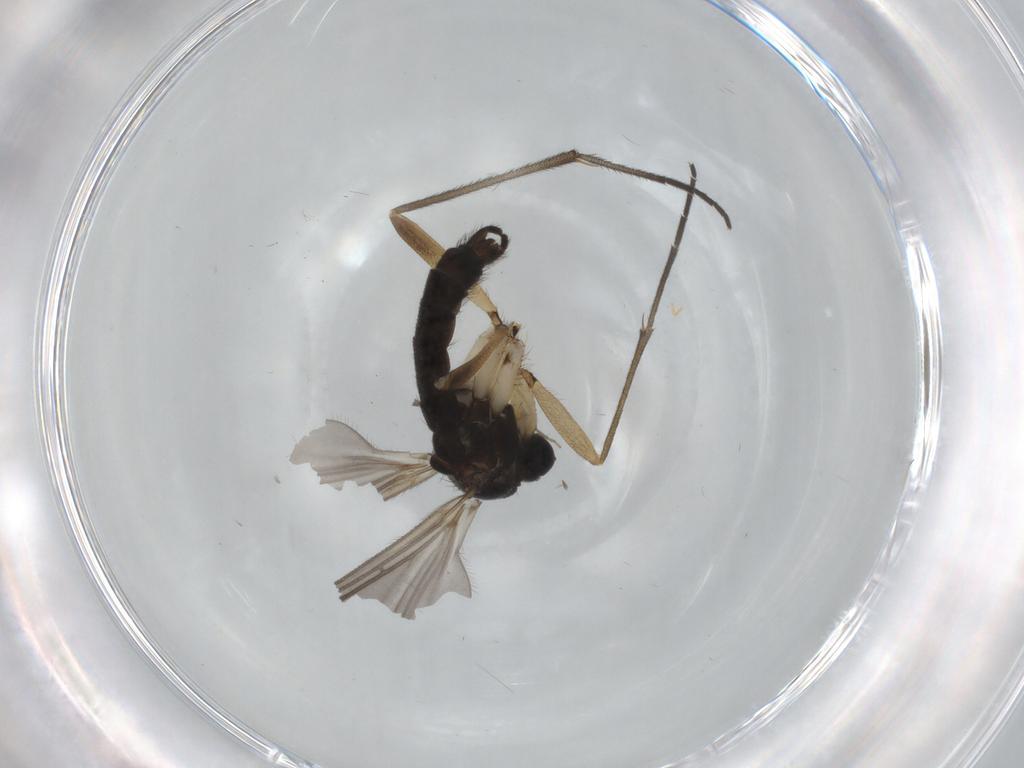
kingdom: Animalia
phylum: Arthropoda
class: Insecta
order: Diptera
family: Sciaridae
